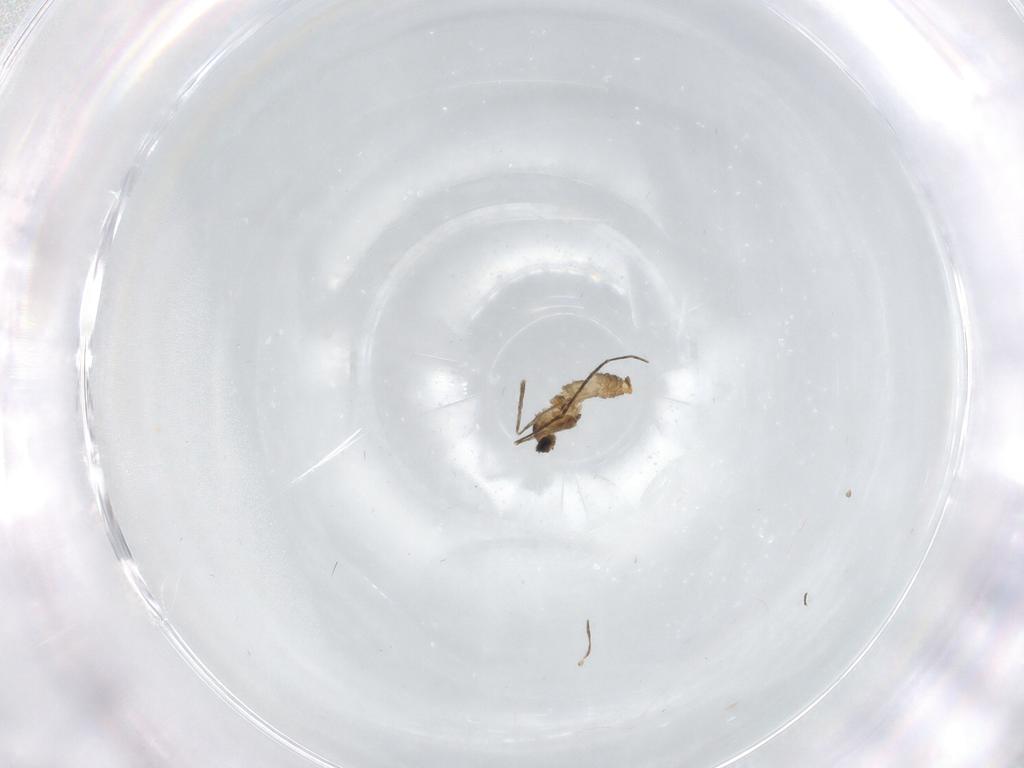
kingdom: Animalia
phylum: Arthropoda
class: Insecta
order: Diptera
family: Cecidomyiidae
